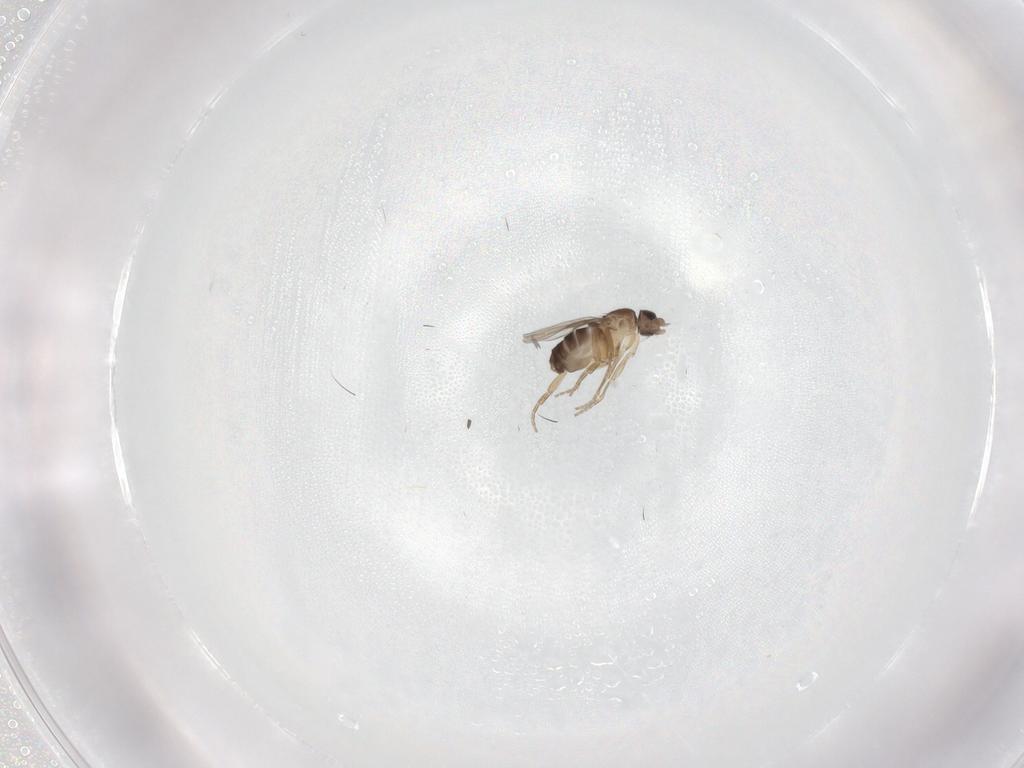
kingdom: Animalia
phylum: Arthropoda
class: Insecta
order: Diptera
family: Phoridae
